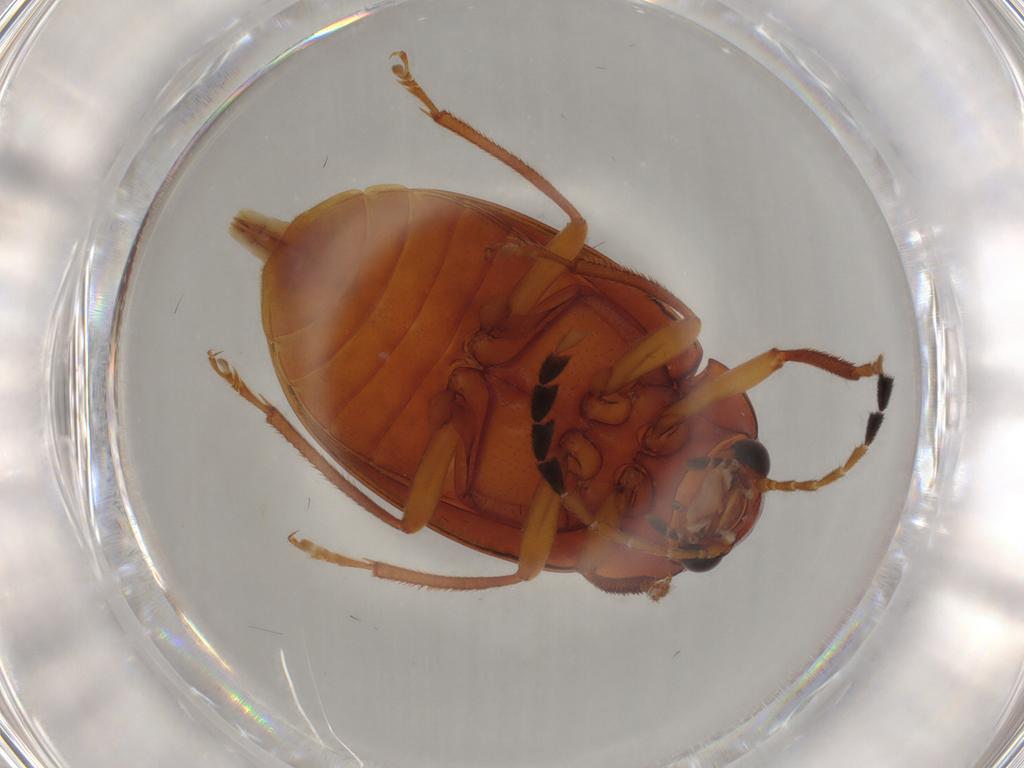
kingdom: Animalia
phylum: Arthropoda
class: Insecta
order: Coleoptera
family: Ptilodactylidae
